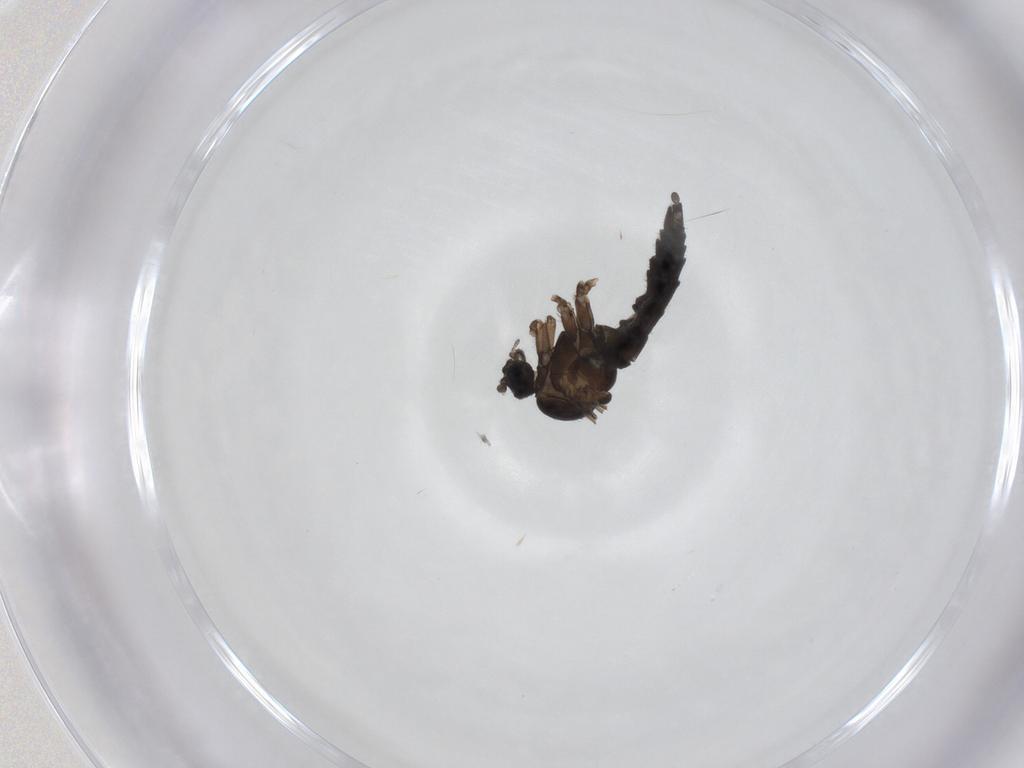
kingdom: Animalia
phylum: Arthropoda
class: Insecta
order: Diptera
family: Sciaridae
